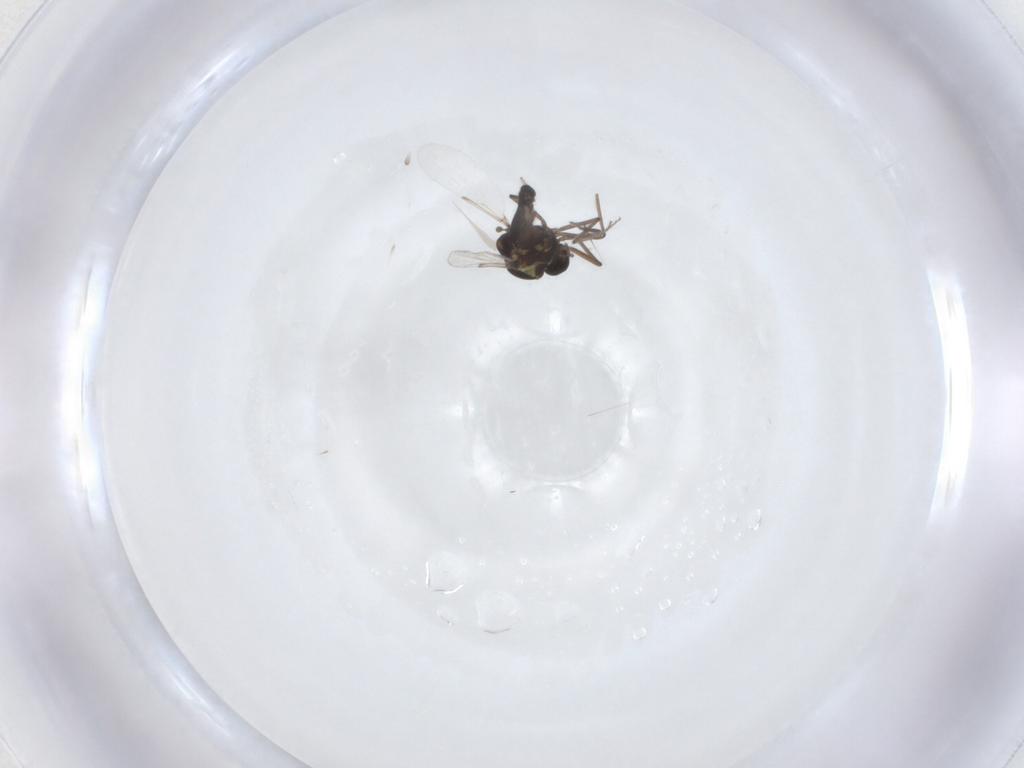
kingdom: Animalia
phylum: Arthropoda
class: Insecta
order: Diptera
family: Ceratopogonidae
